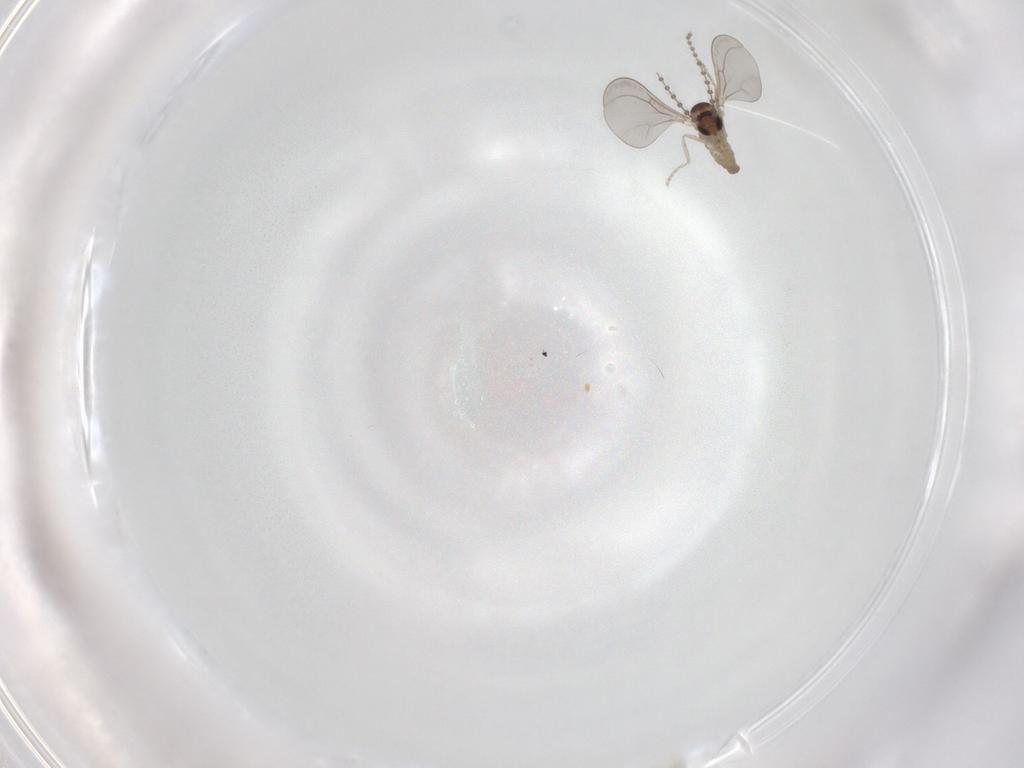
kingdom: Animalia
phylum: Arthropoda
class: Insecta
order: Diptera
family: Cecidomyiidae
